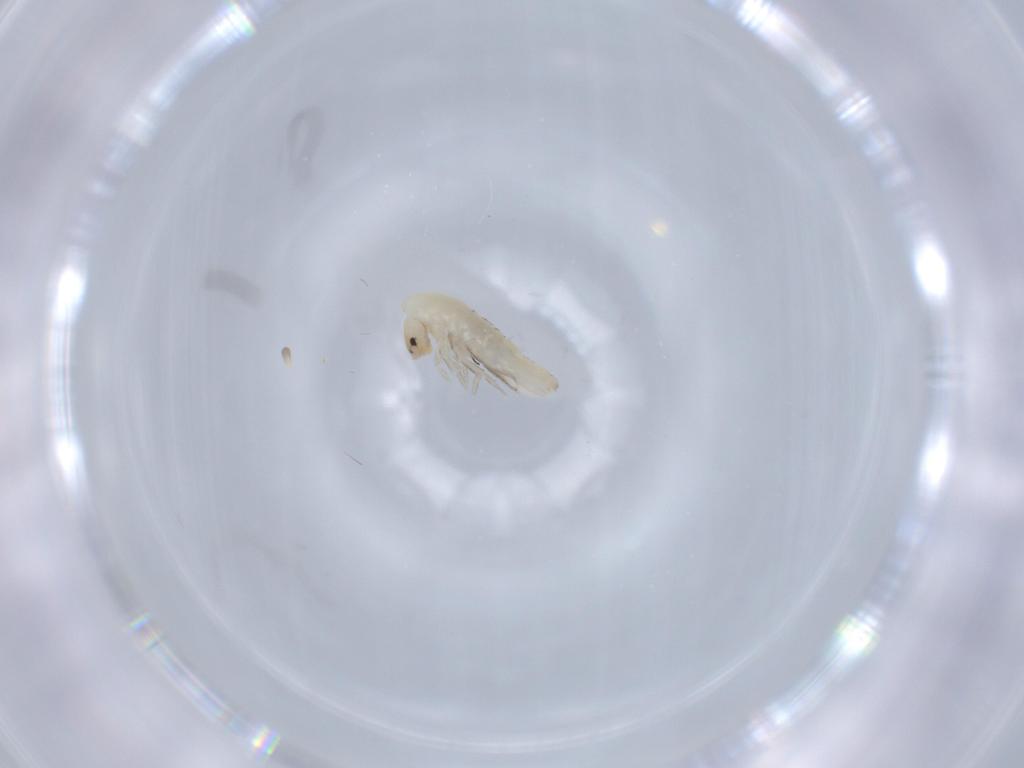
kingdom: Animalia
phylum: Arthropoda
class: Collembola
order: Entomobryomorpha
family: Entomobryidae
